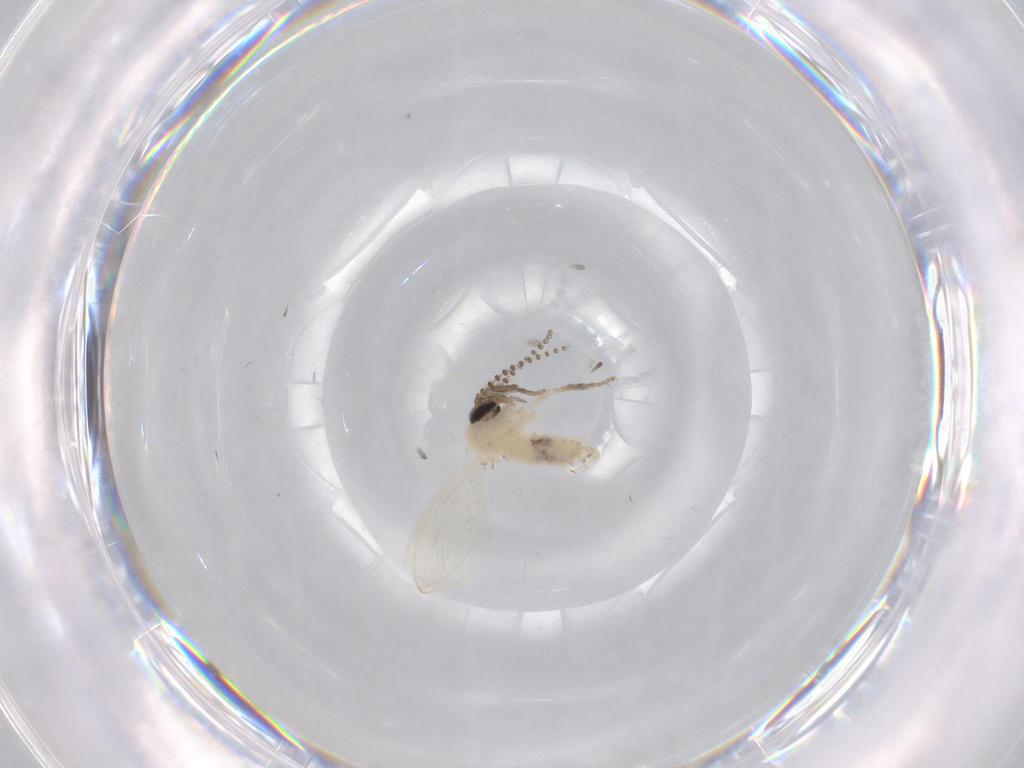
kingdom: Animalia
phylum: Arthropoda
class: Insecta
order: Diptera
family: Psychodidae
